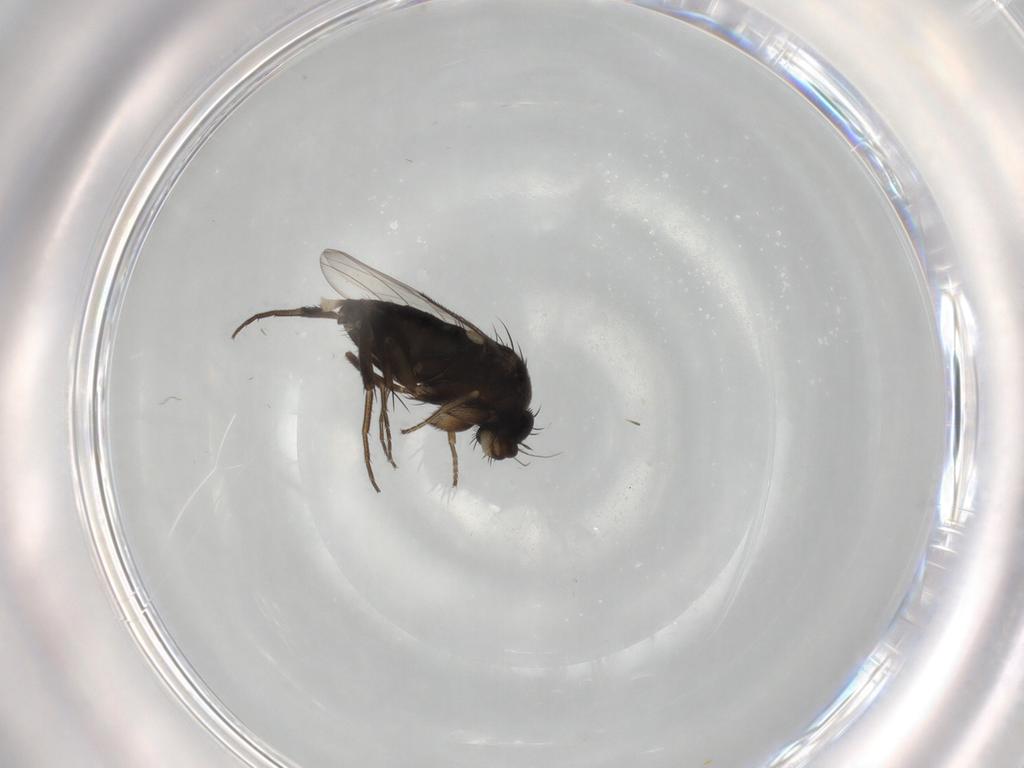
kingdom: Animalia
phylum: Arthropoda
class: Insecta
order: Diptera
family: Phoridae
